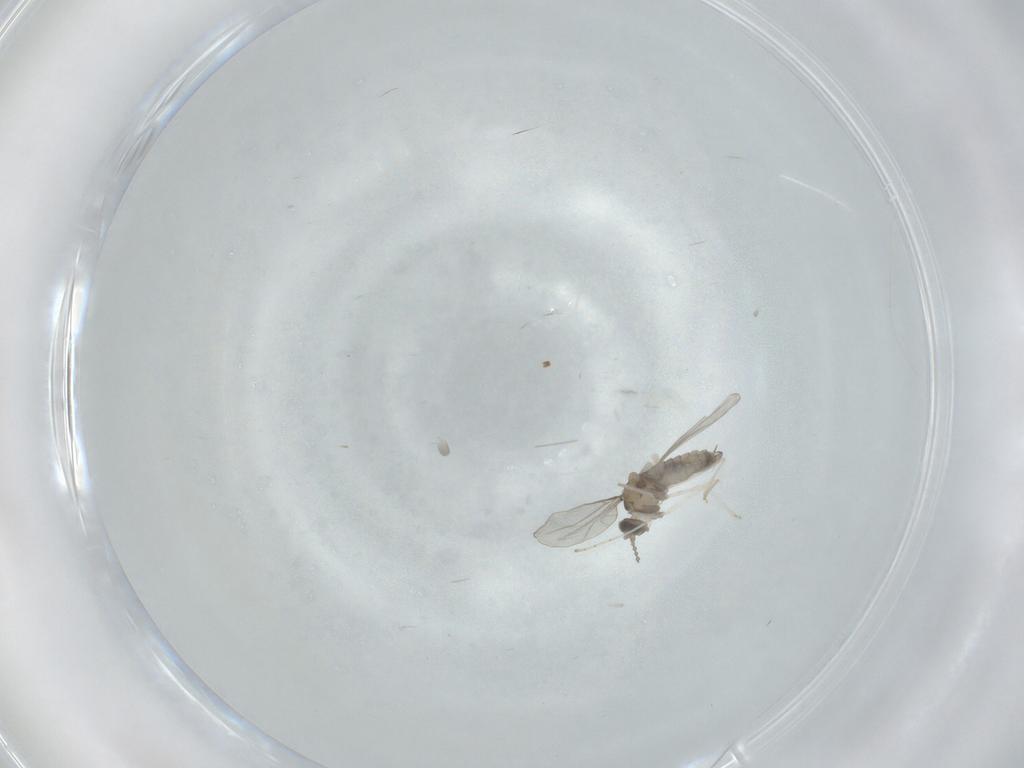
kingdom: Animalia
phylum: Arthropoda
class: Insecta
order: Diptera
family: Cecidomyiidae
